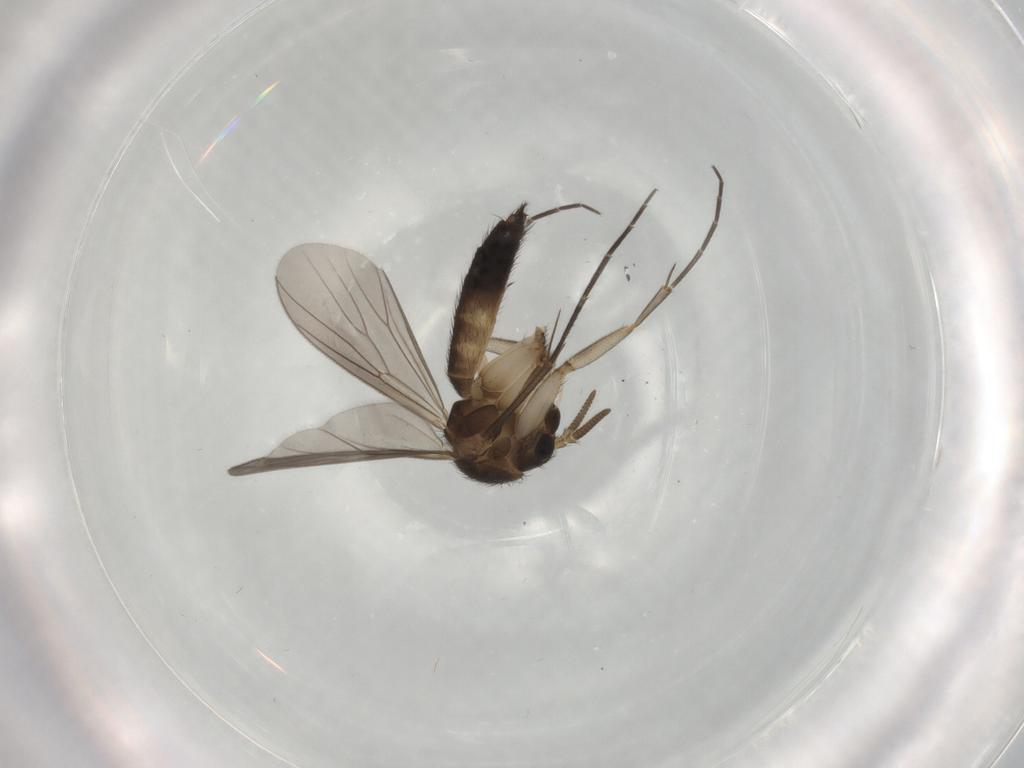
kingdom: Animalia
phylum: Arthropoda
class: Insecta
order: Diptera
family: Mycetophilidae
